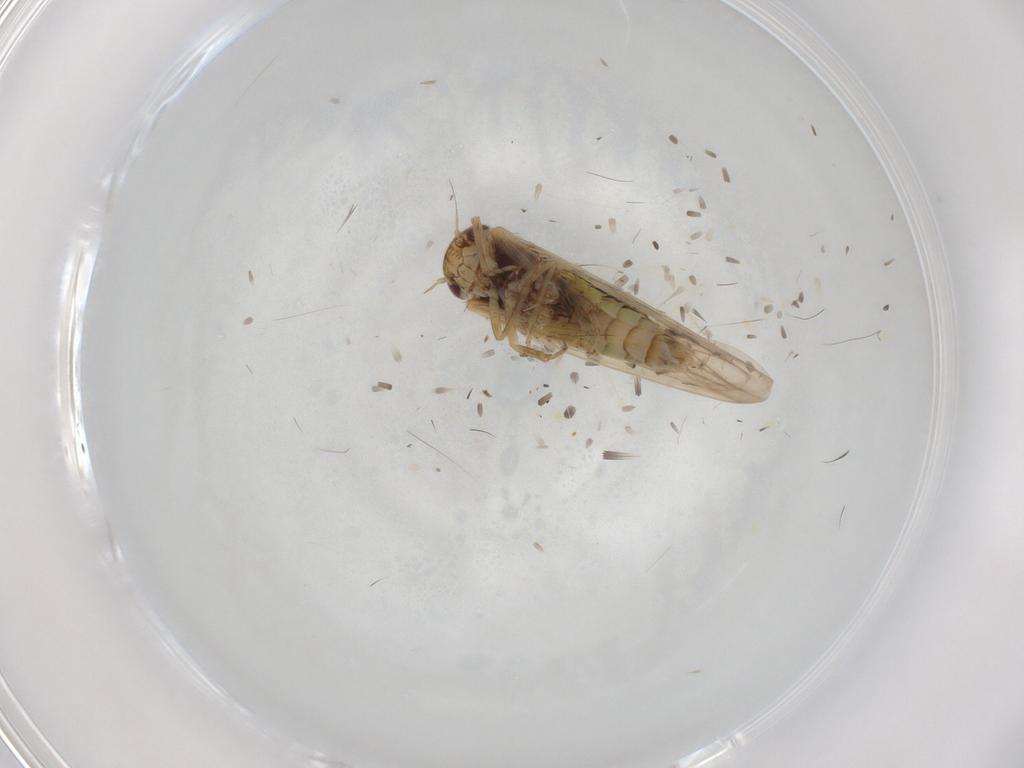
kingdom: Animalia
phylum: Arthropoda
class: Insecta
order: Hemiptera
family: Cicadellidae
